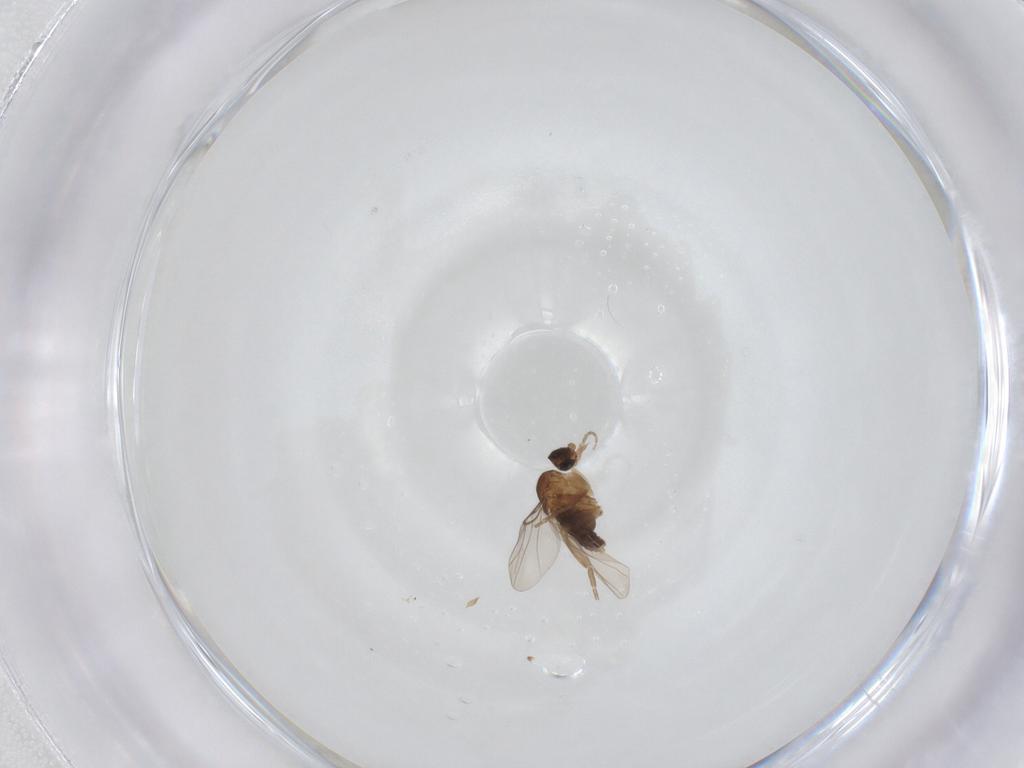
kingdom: Animalia
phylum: Arthropoda
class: Insecta
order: Diptera
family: Phoridae
